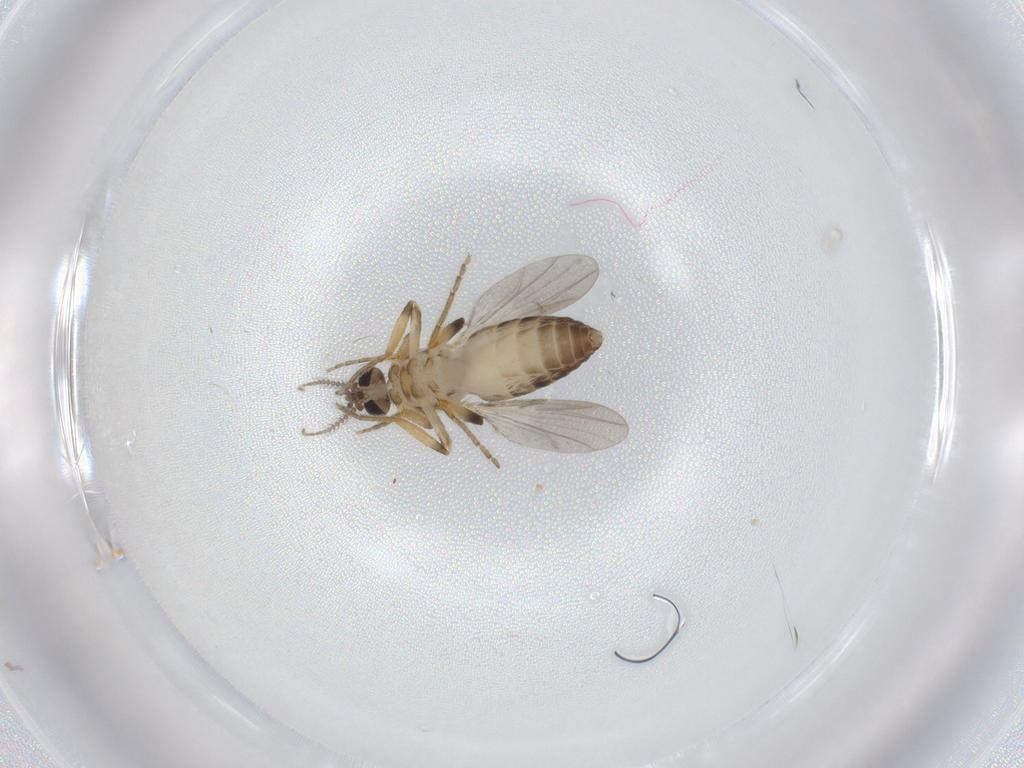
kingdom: Animalia
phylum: Arthropoda
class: Insecta
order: Diptera
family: Ceratopogonidae
